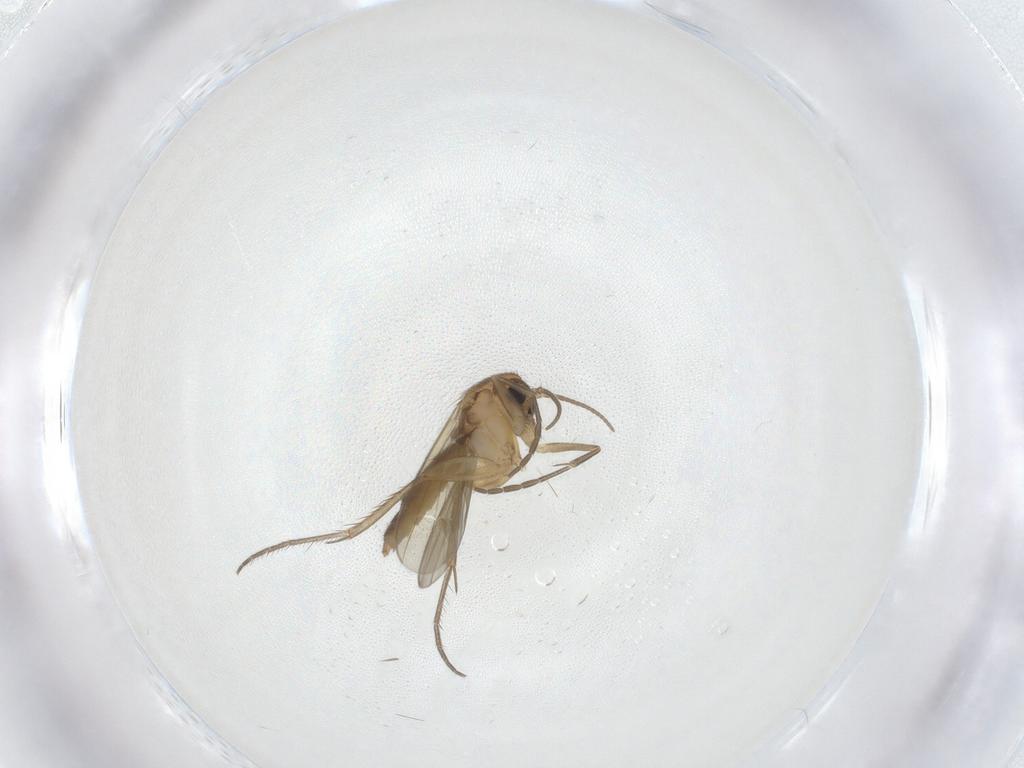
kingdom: Animalia
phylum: Arthropoda
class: Insecta
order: Diptera
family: Mycetophilidae
